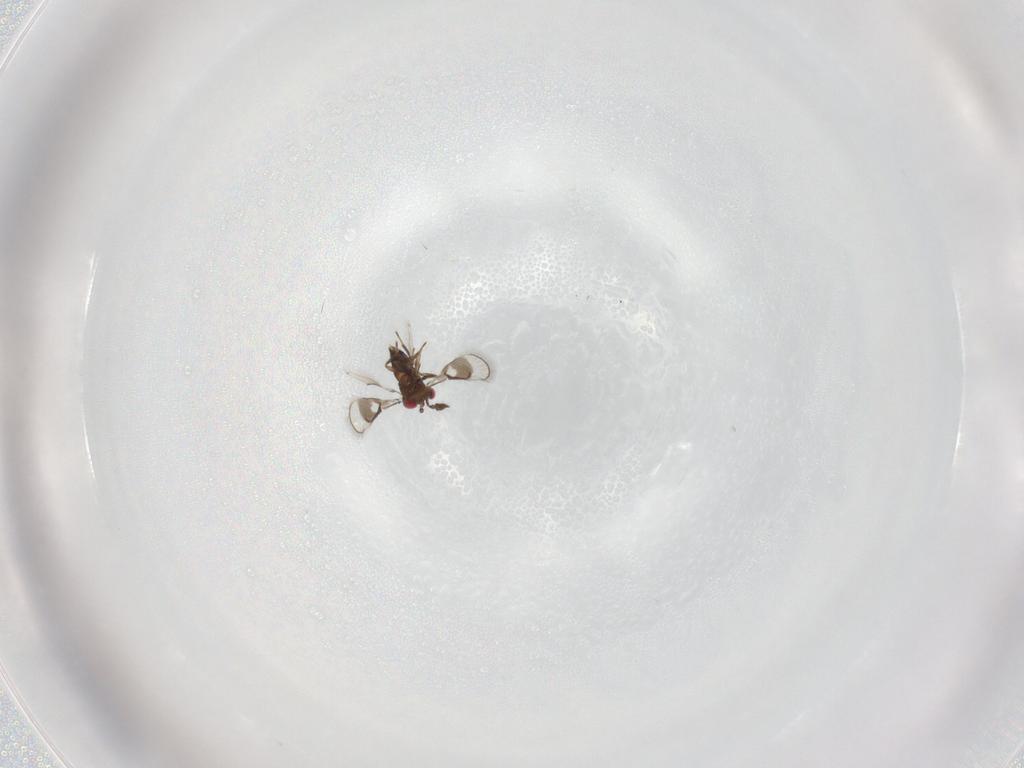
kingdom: Animalia
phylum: Arthropoda
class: Insecta
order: Hymenoptera
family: Trichogrammatidae
